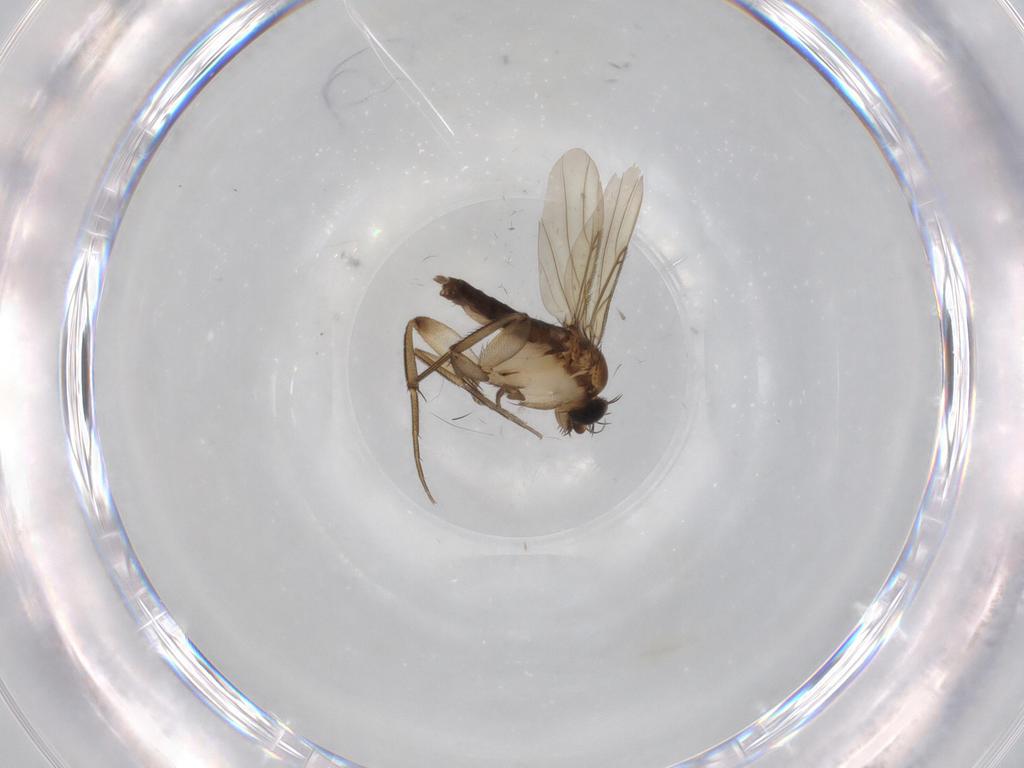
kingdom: Animalia
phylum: Arthropoda
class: Insecta
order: Diptera
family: Phoridae
